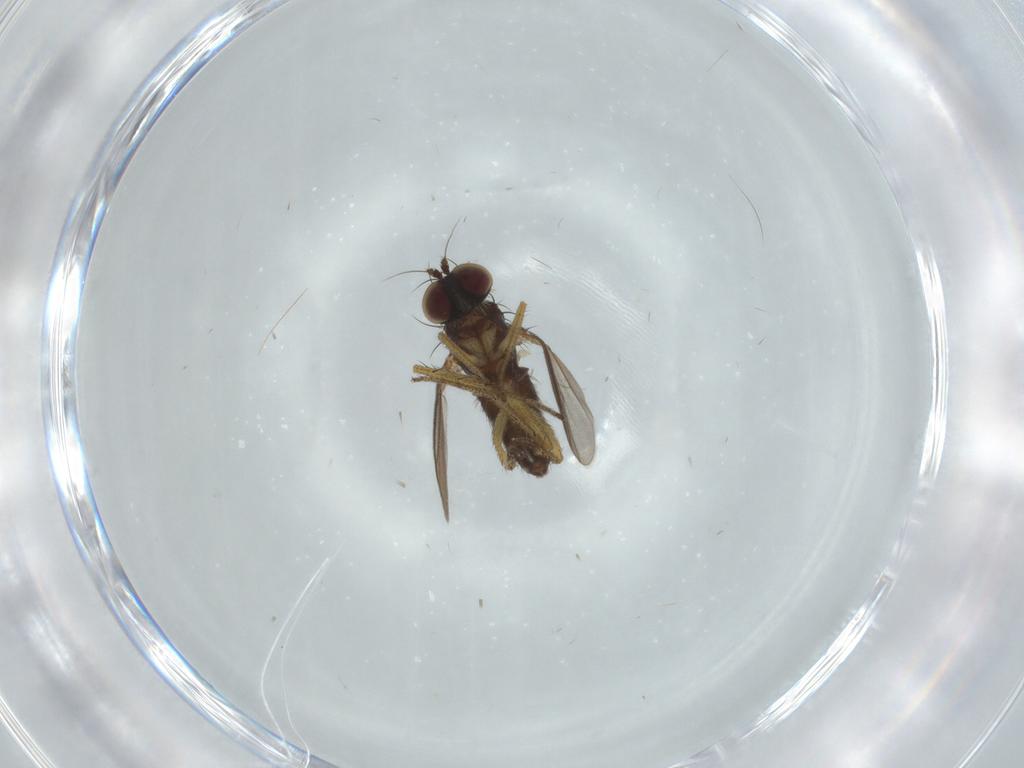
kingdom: Animalia
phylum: Arthropoda
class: Insecta
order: Diptera
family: Dolichopodidae
